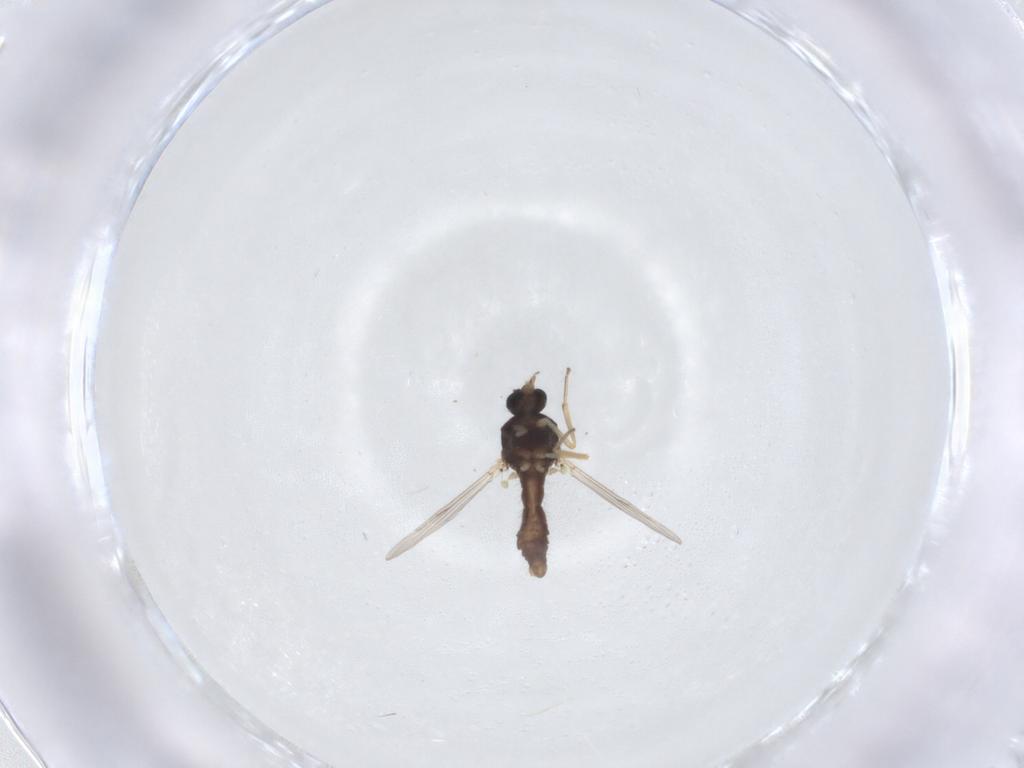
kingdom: Animalia
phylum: Arthropoda
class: Insecta
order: Diptera
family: Ceratopogonidae
